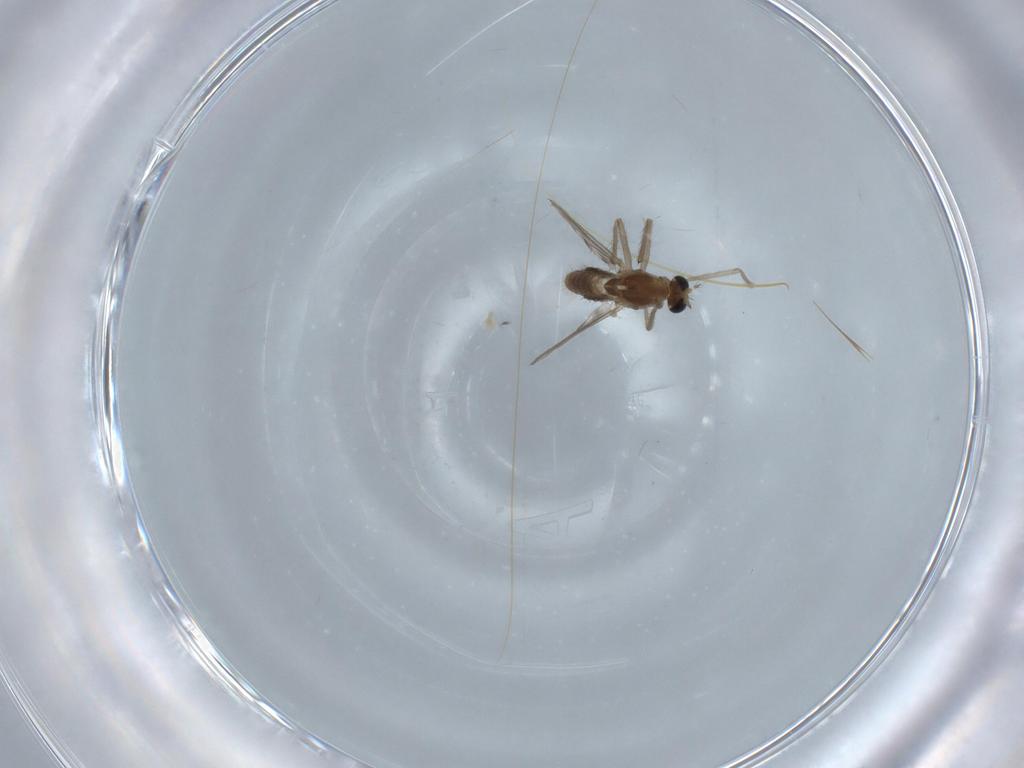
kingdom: Animalia
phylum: Arthropoda
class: Insecta
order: Diptera
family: Chironomidae
